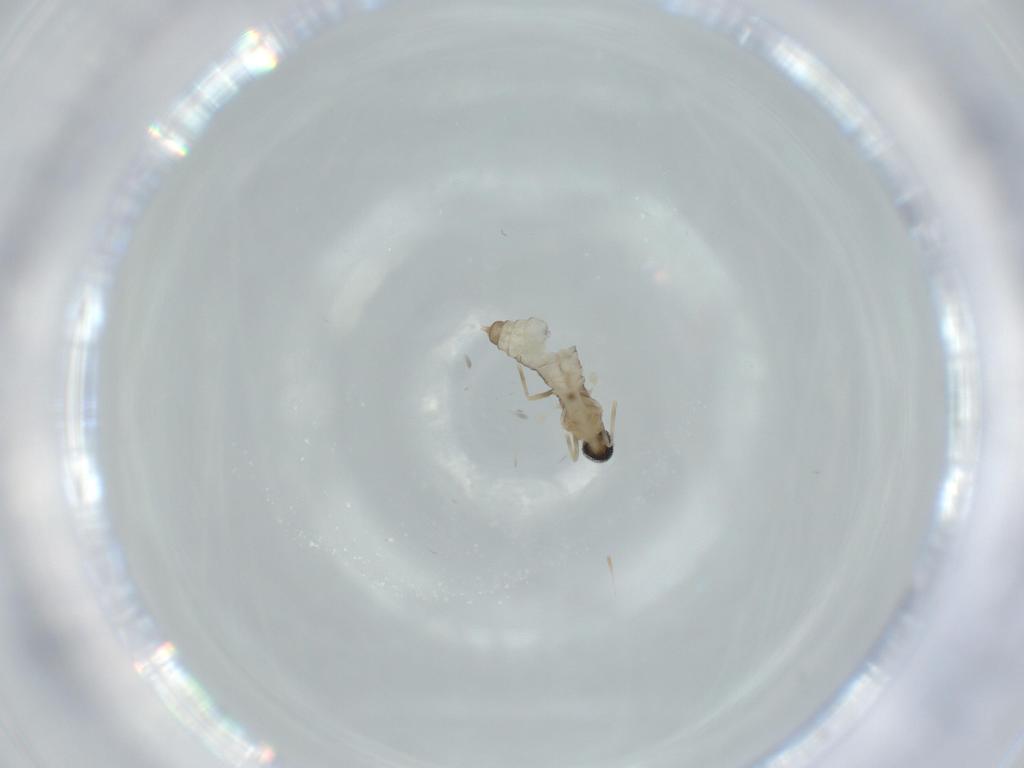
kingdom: Animalia
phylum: Arthropoda
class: Insecta
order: Diptera
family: Cecidomyiidae
